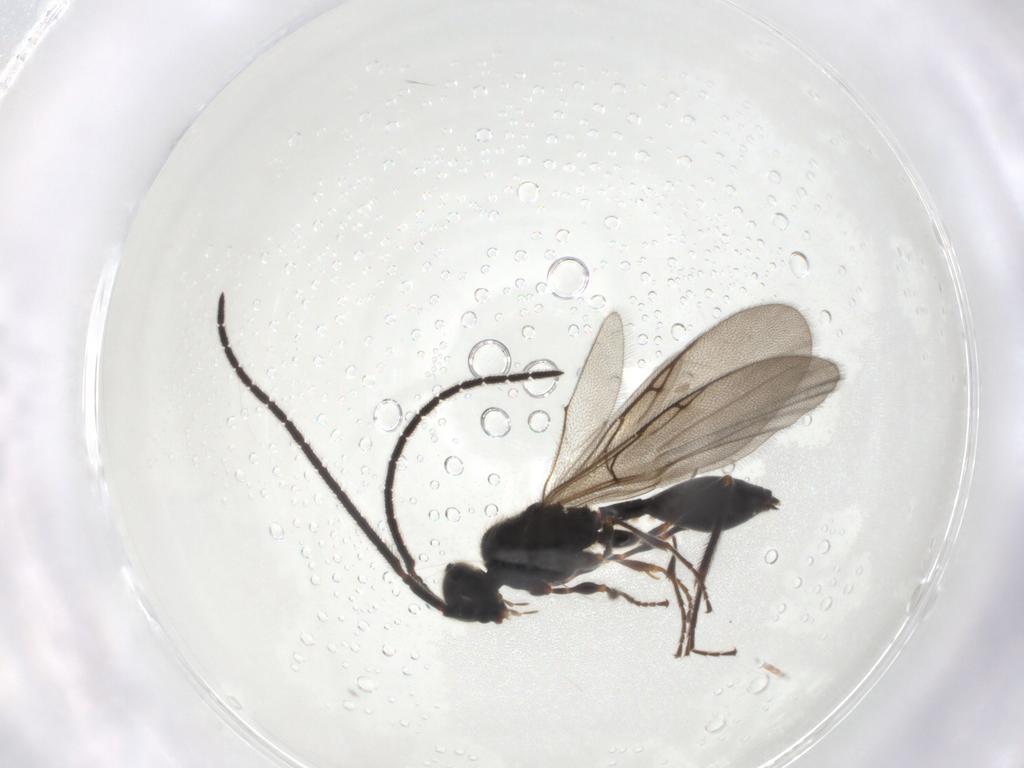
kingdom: Animalia
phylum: Arthropoda
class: Insecta
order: Hymenoptera
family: Diapriidae
